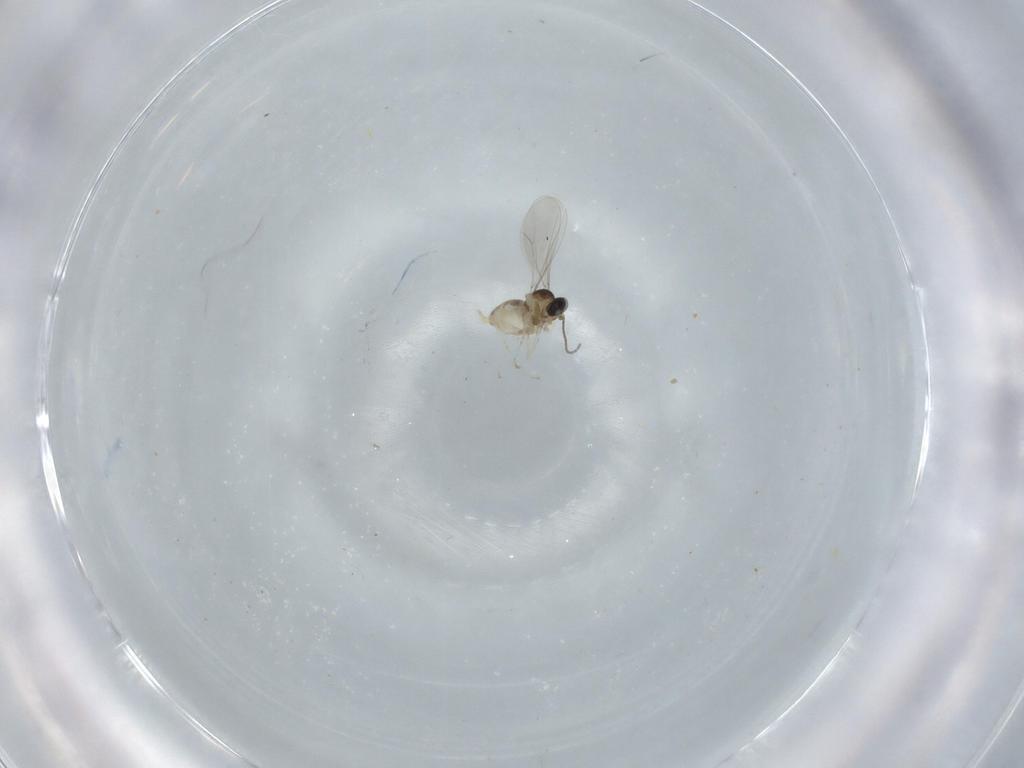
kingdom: Animalia
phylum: Arthropoda
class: Insecta
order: Diptera
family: Cecidomyiidae
